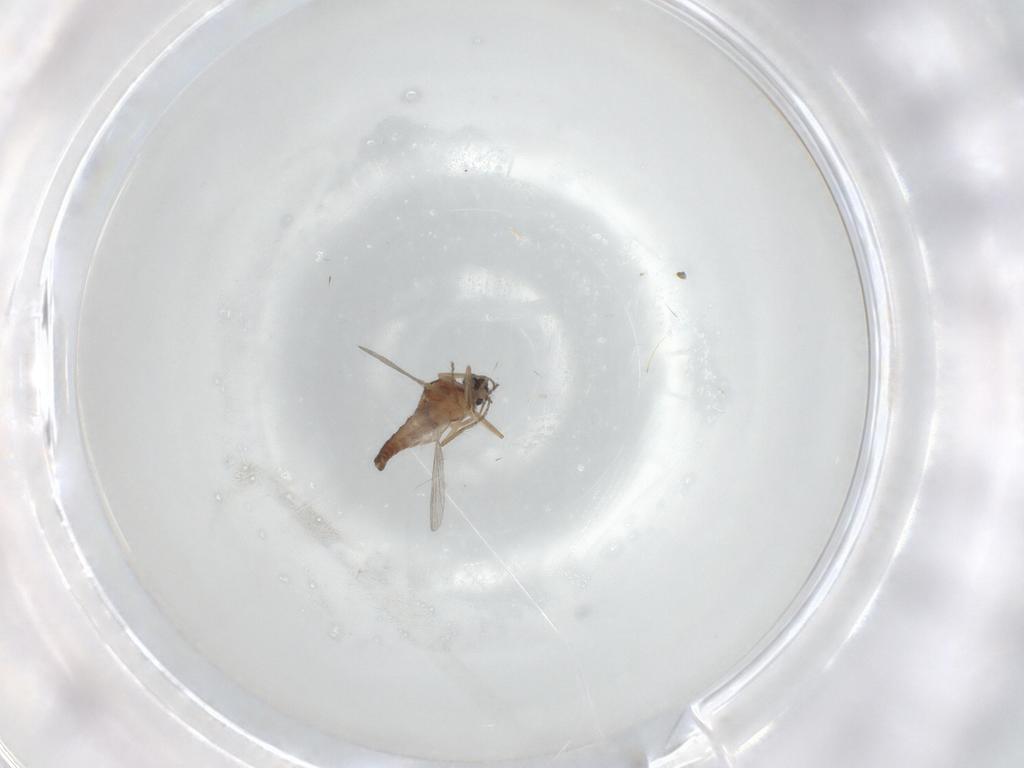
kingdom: Animalia
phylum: Arthropoda
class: Insecta
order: Diptera
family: Ceratopogonidae
